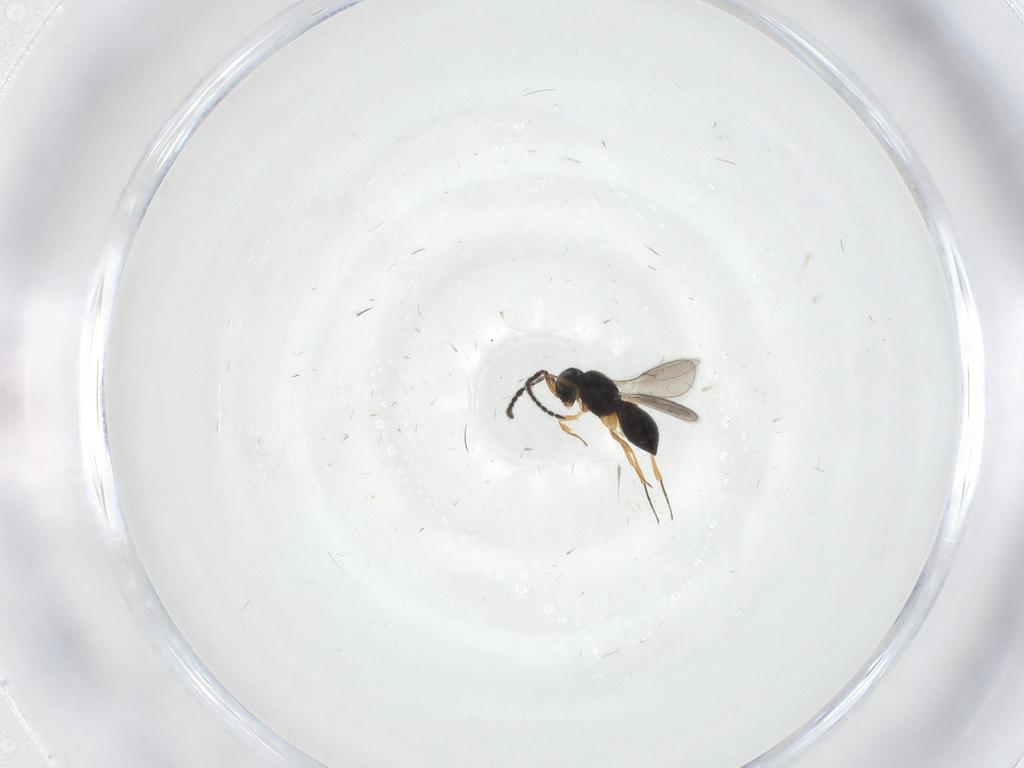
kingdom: Animalia
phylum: Arthropoda
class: Insecta
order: Hymenoptera
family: Scelionidae
